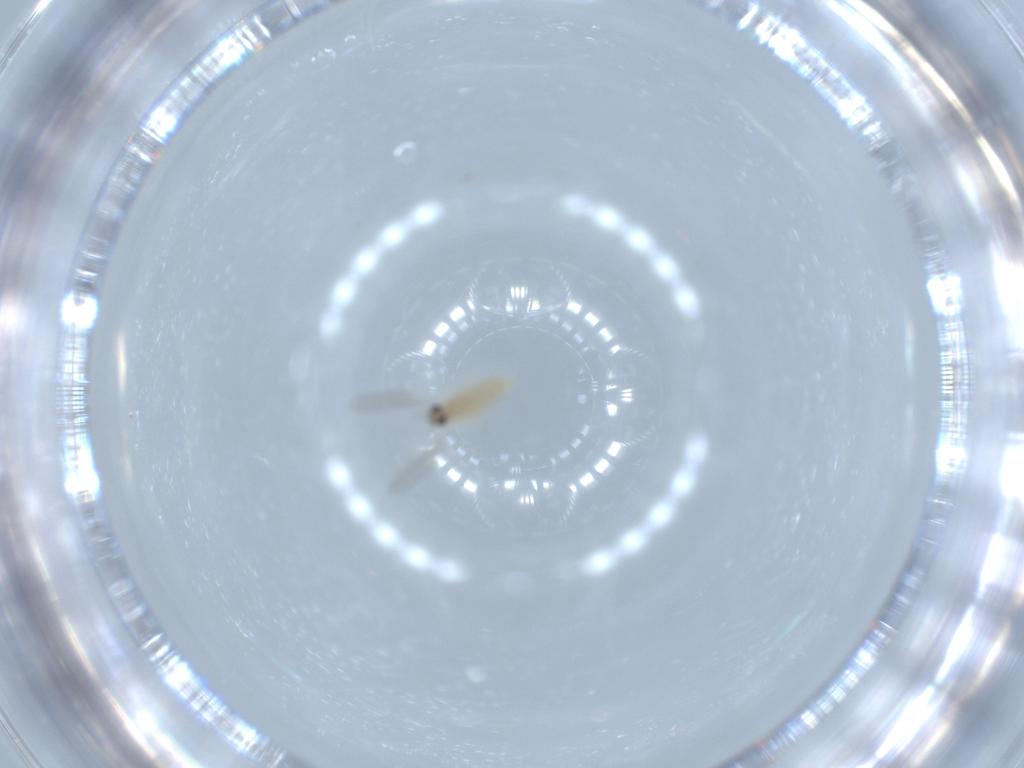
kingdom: Animalia
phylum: Arthropoda
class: Insecta
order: Diptera
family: Cecidomyiidae
